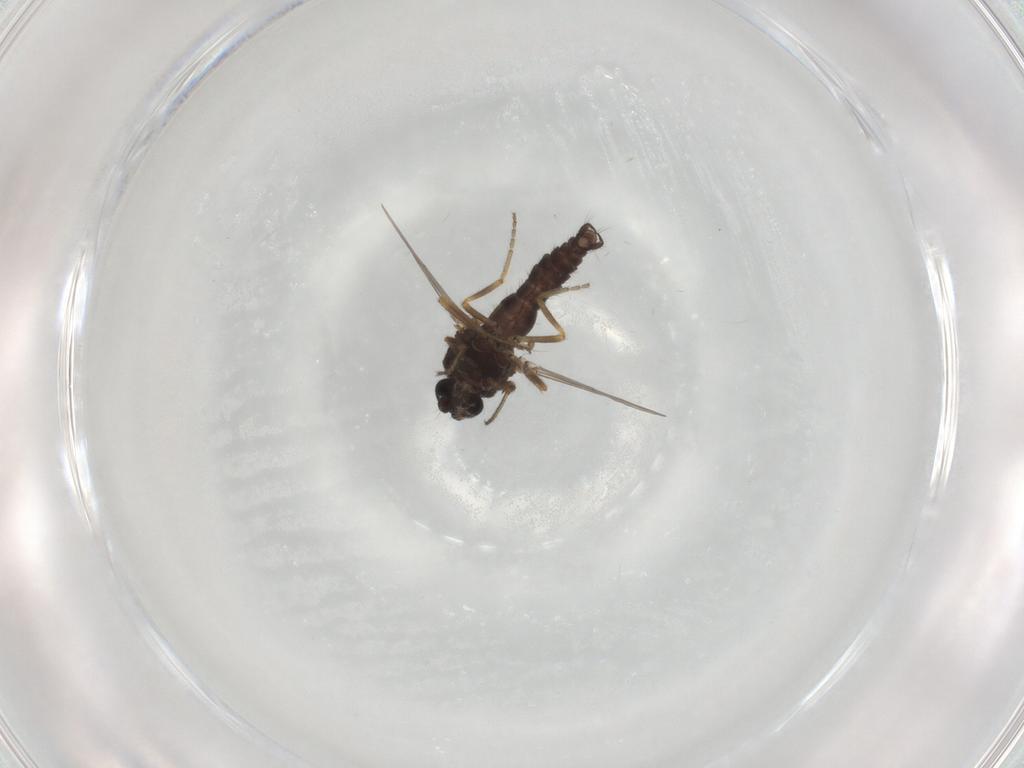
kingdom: Animalia
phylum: Arthropoda
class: Insecta
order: Diptera
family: Ceratopogonidae
